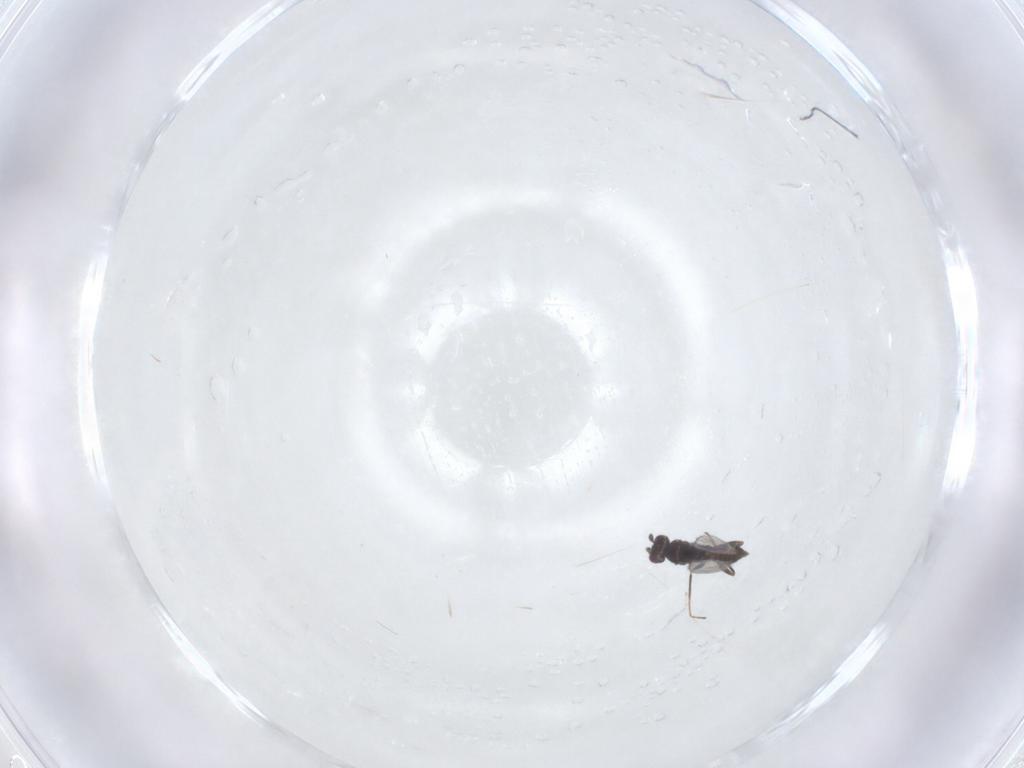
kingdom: Animalia
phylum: Arthropoda
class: Insecta
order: Hymenoptera
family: Mymaridae
